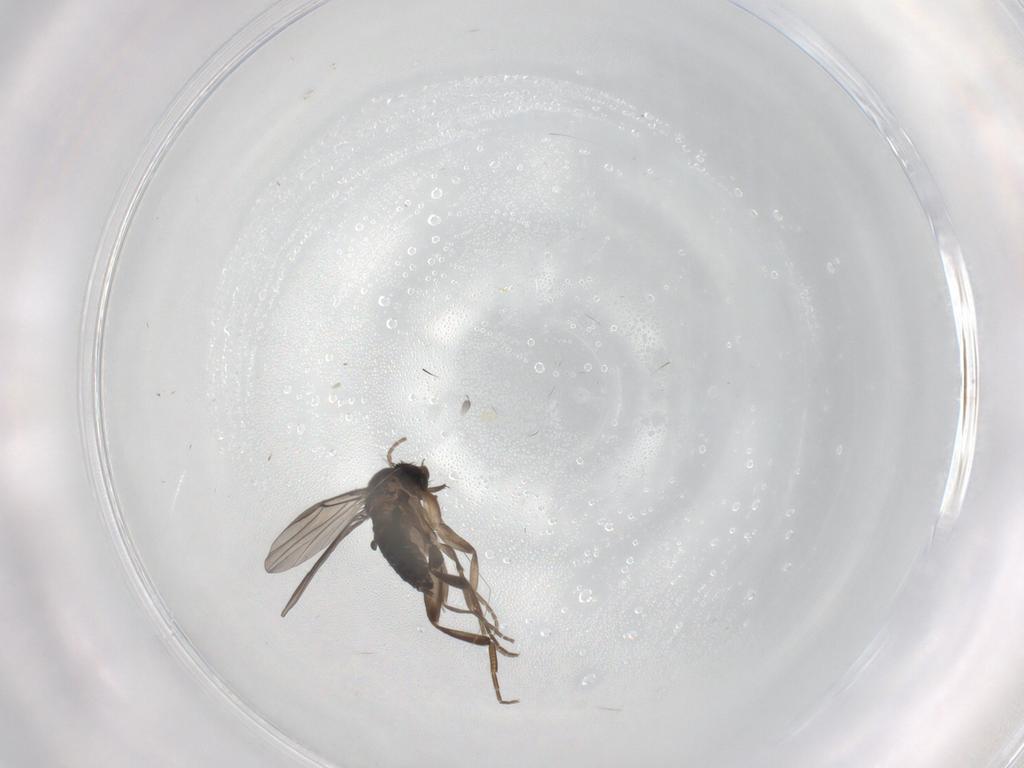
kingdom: Animalia
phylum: Arthropoda
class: Insecta
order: Diptera
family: Phoridae
